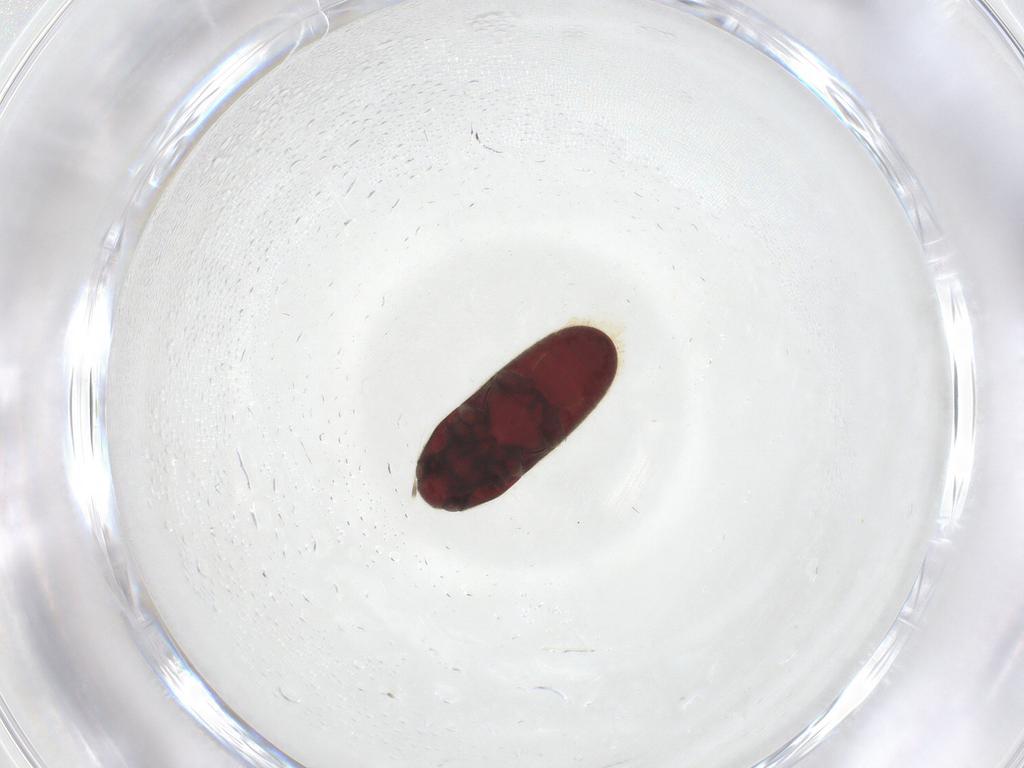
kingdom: Animalia
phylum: Arthropoda
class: Insecta
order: Coleoptera
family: Throscidae
